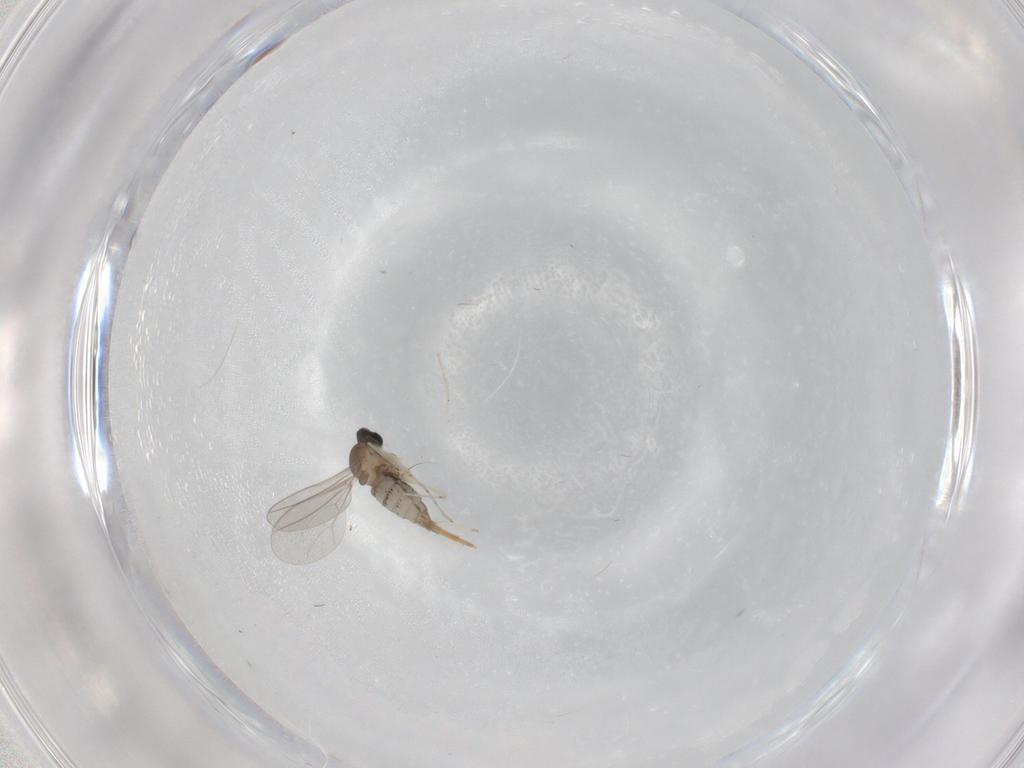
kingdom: Animalia
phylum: Arthropoda
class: Insecta
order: Diptera
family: Cecidomyiidae
